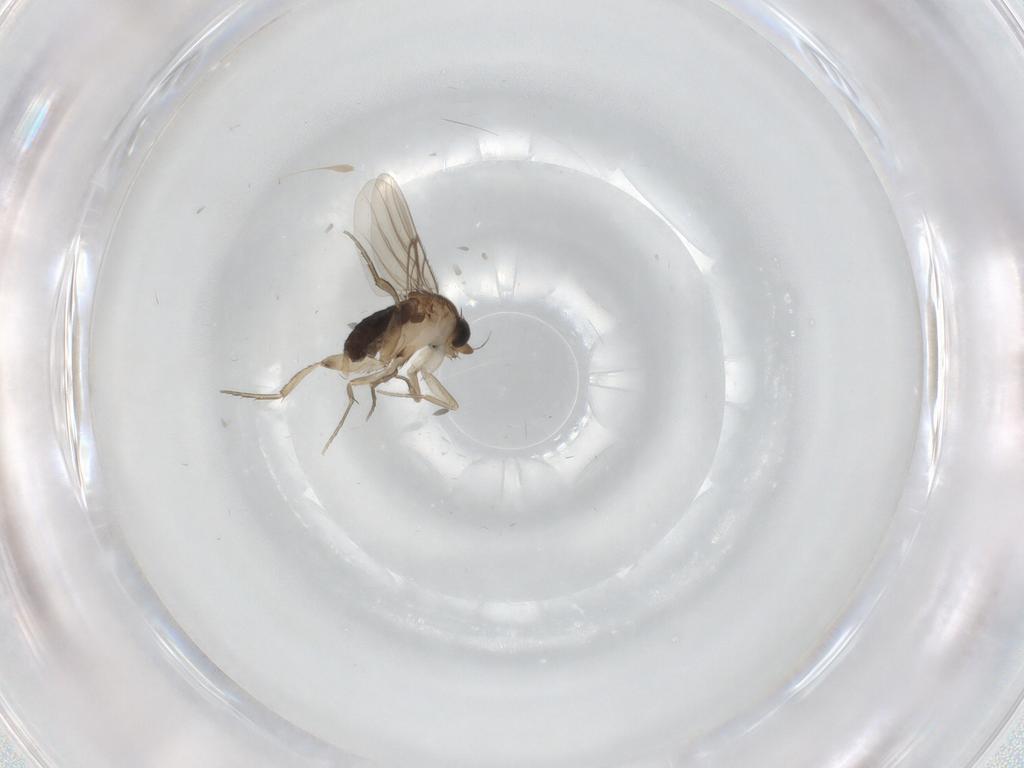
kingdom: Animalia
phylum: Arthropoda
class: Insecta
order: Diptera
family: Phoridae
